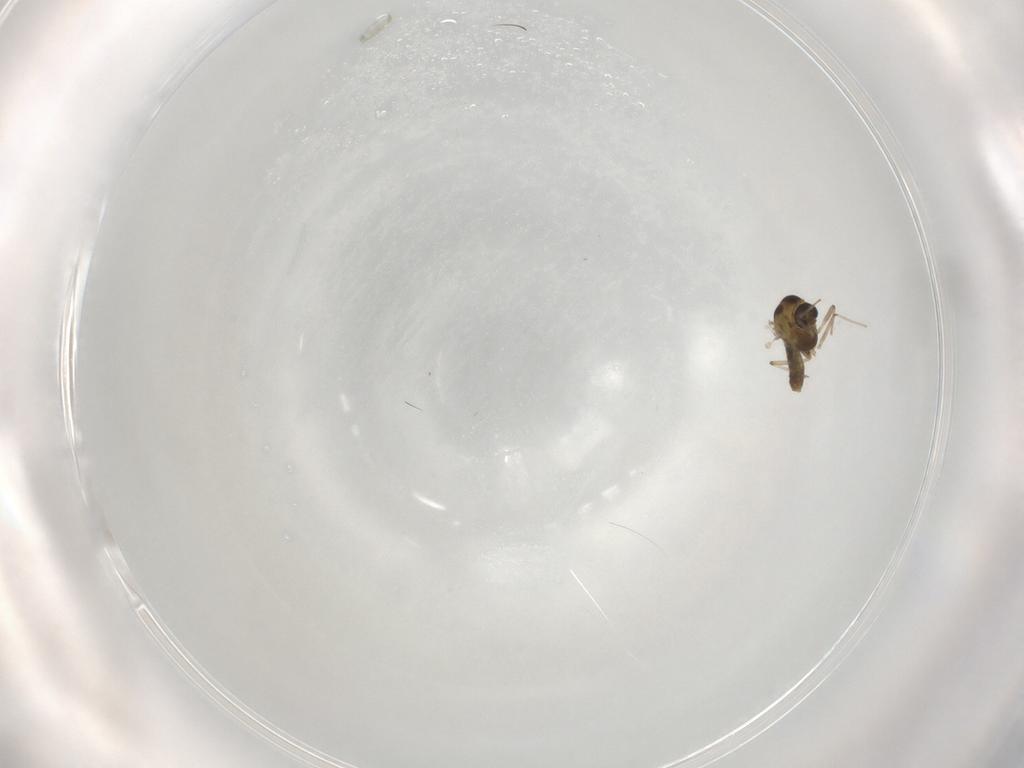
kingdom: Animalia
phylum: Arthropoda
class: Insecta
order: Diptera
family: Chironomidae
